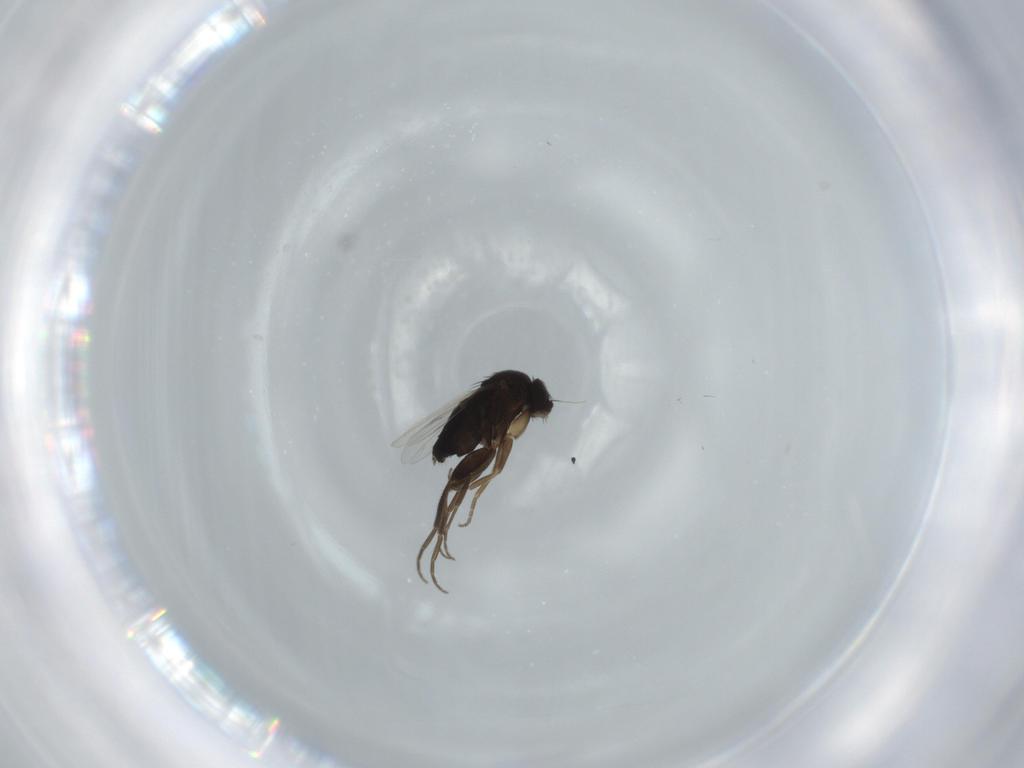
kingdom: Animalia
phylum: Arthropoda
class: Insecta
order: Diptera
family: Phoridae
